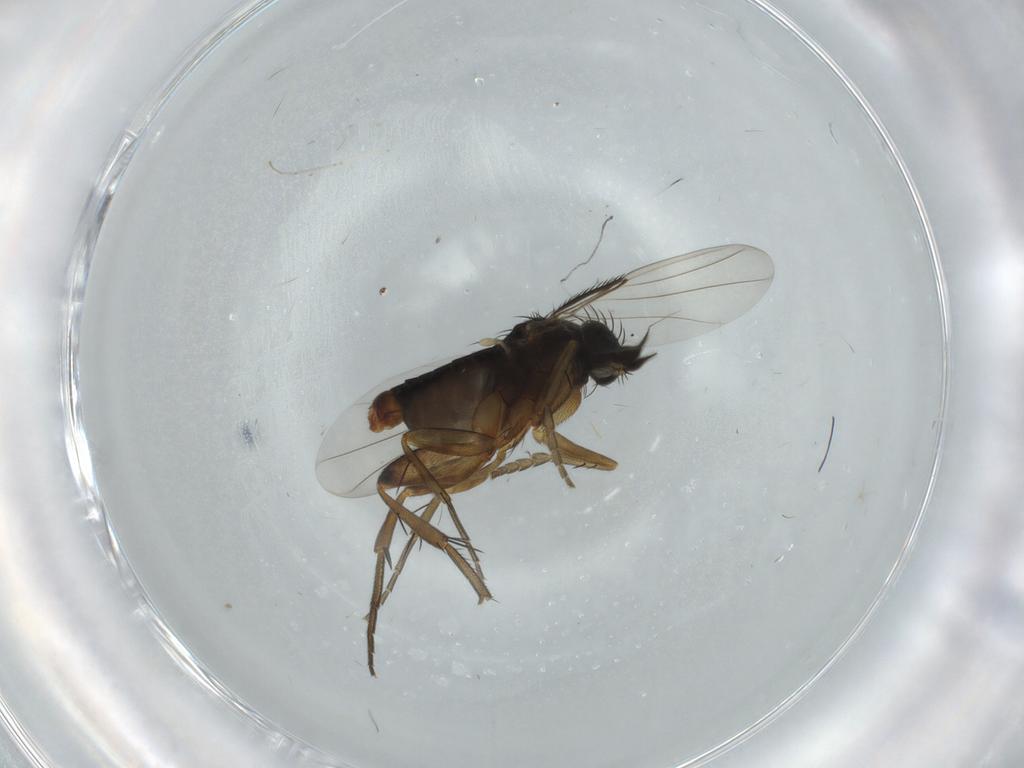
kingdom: Animalia
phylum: Arthropoda
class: Insecta
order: Diptera
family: Phoridae
